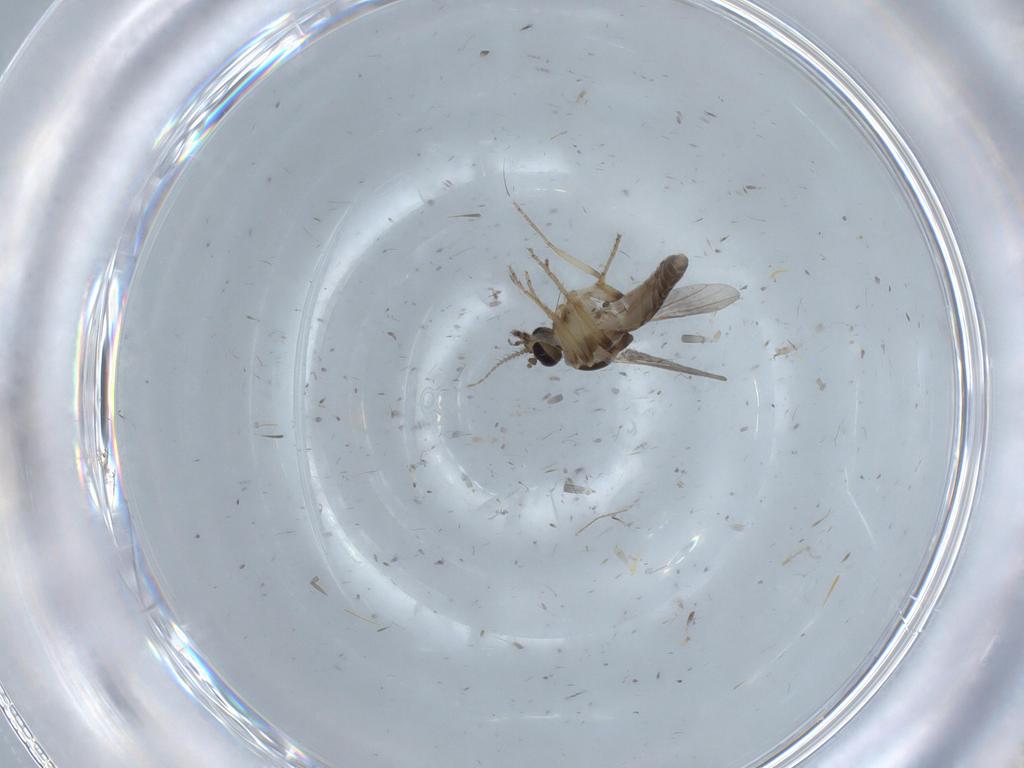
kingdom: Animalia
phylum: Arthropoda
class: Insecta
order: Diptera
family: Ceratopogonidae
